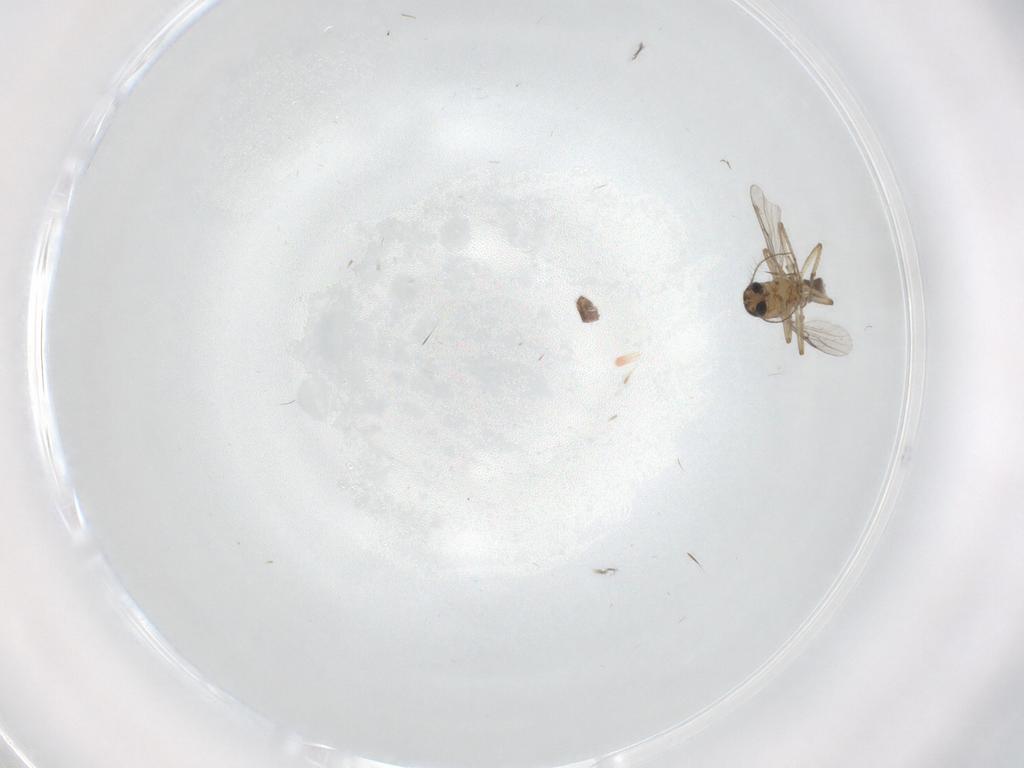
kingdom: Animalia
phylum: Arthropoda
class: Insecta
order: Diptera
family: Ceratopogonidae
